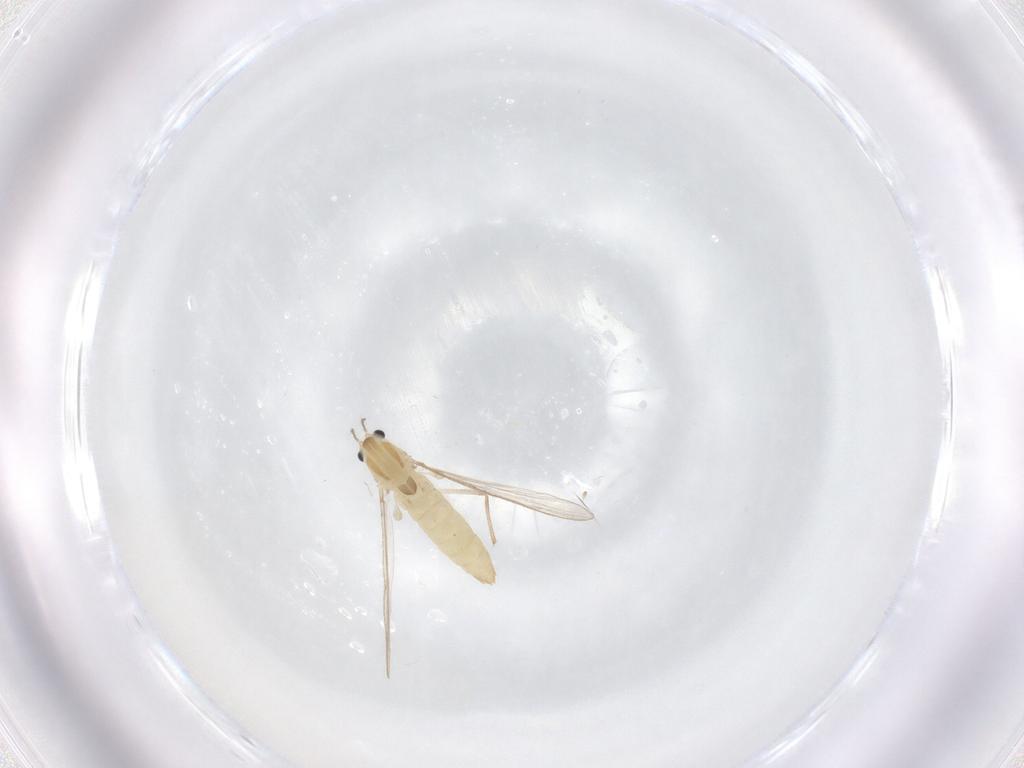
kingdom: Animalia
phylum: Arthropoda
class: Insecta
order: Diptera
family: Chironomidae
